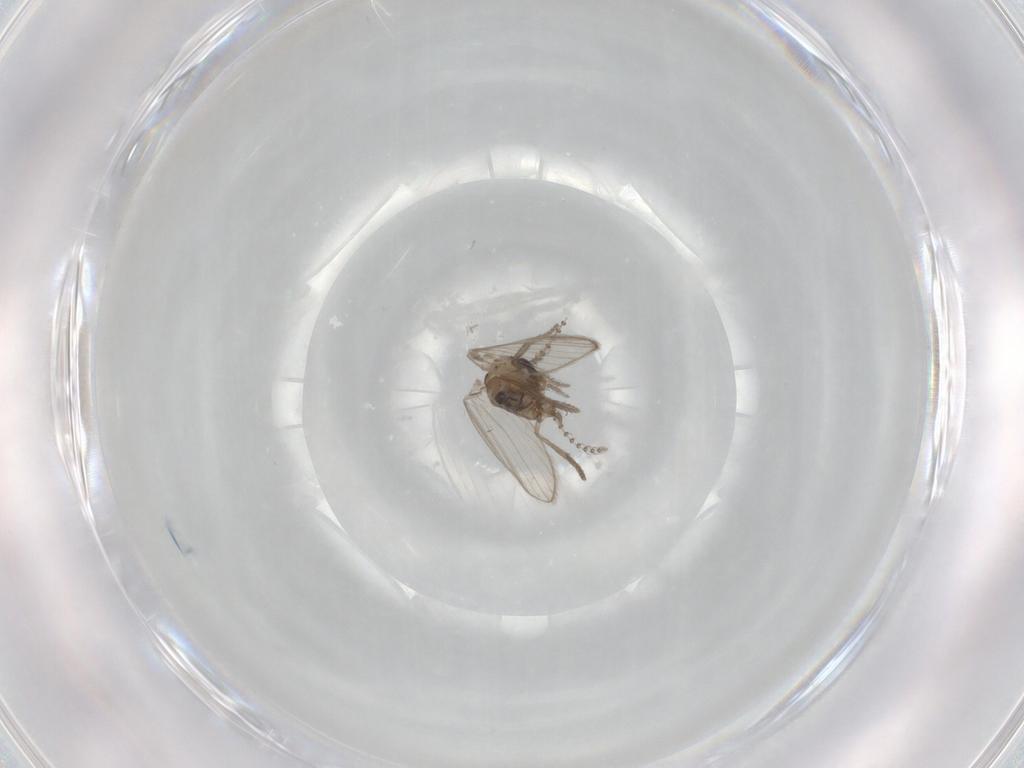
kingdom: Animalia
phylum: Arthropoda
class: Insecta
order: Diptera
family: Psychodidae
